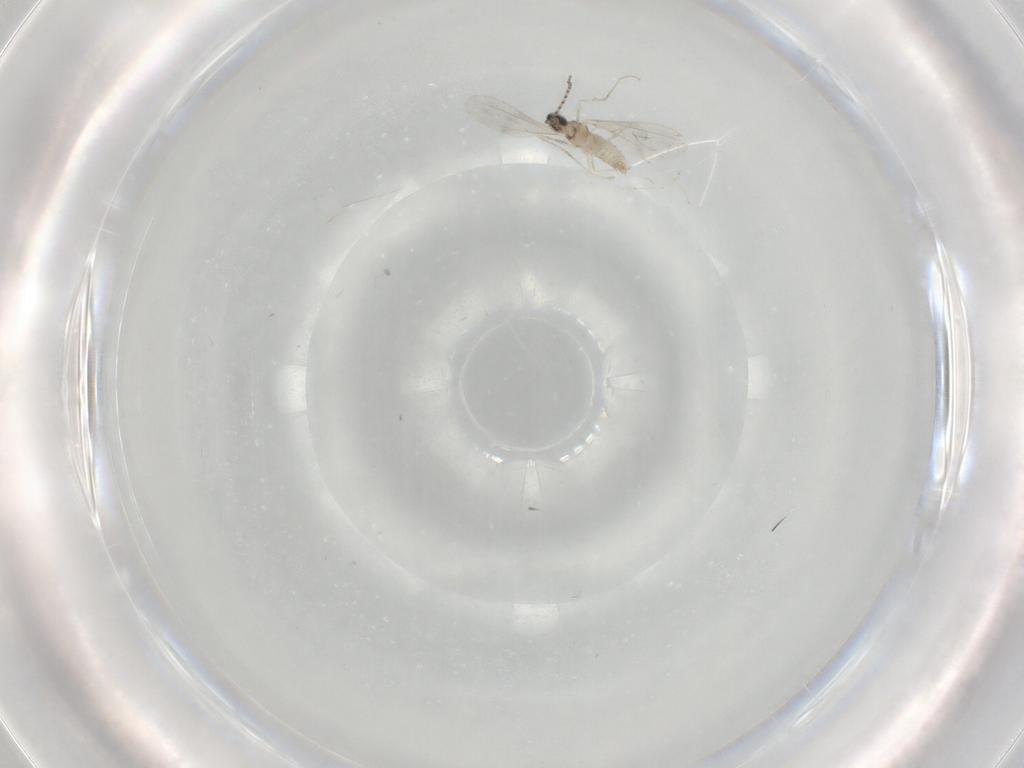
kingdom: Animalia
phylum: Arthropoda
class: Insecta
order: Diptera
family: Cecidomyiidae
